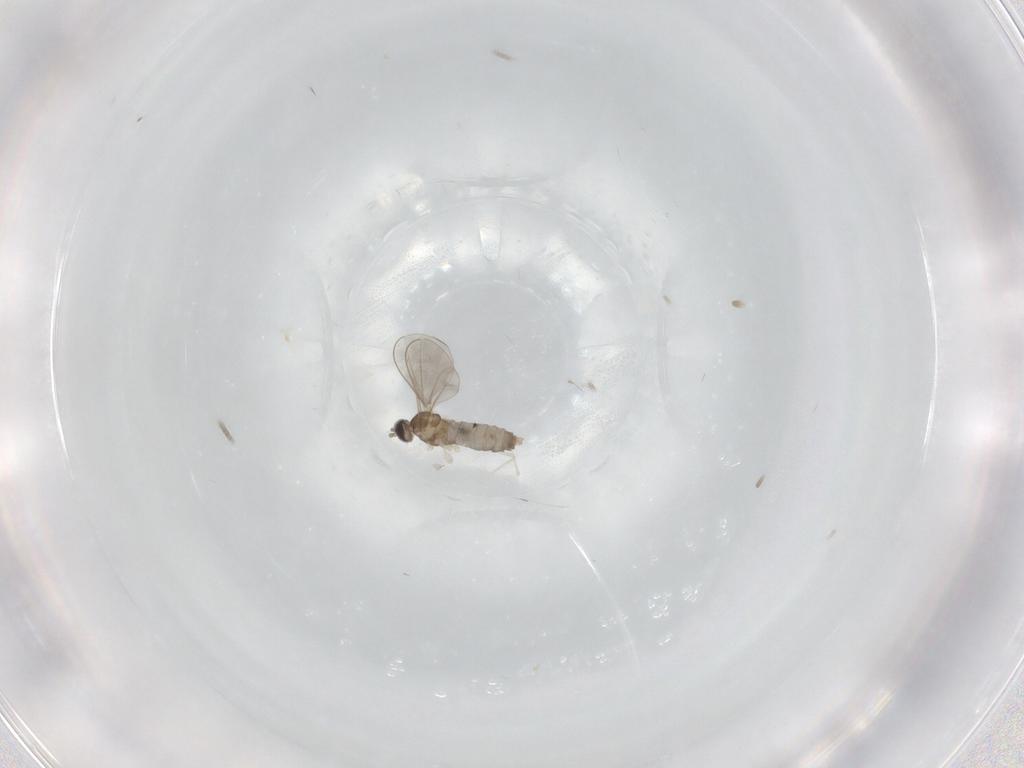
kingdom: Animalia
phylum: Arthropoda
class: Insecta
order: Diptera
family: Cecidomyiidae
